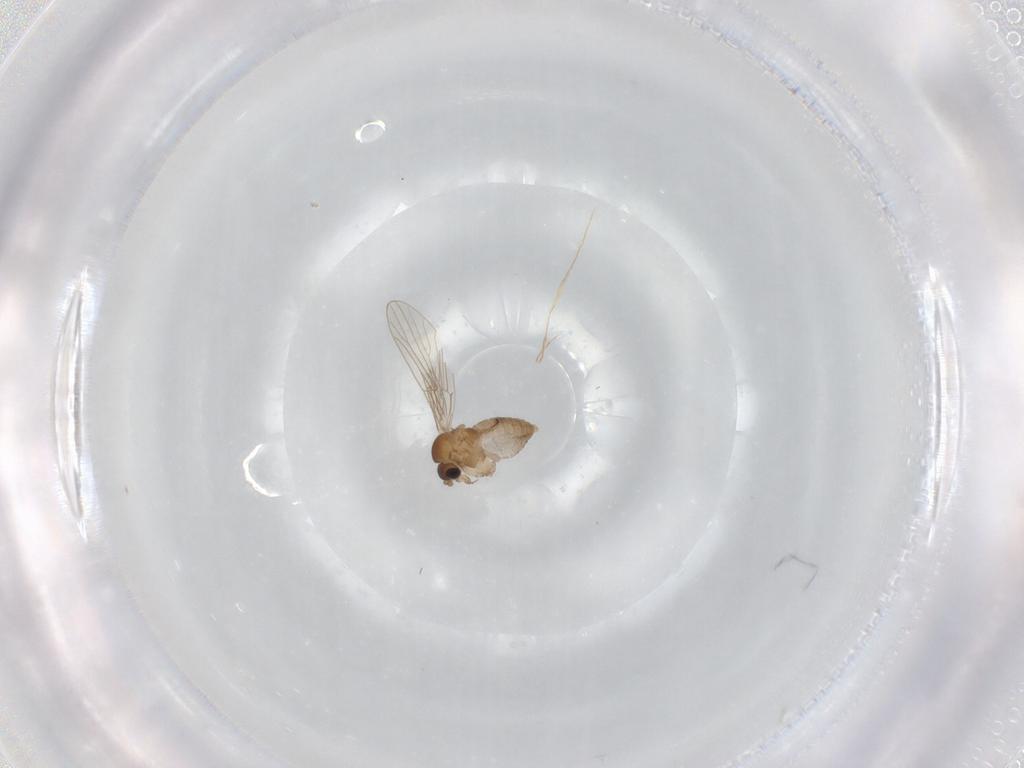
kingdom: Animalia
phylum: Arthropoda
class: Insecta
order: Diptera
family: Psychodidae
